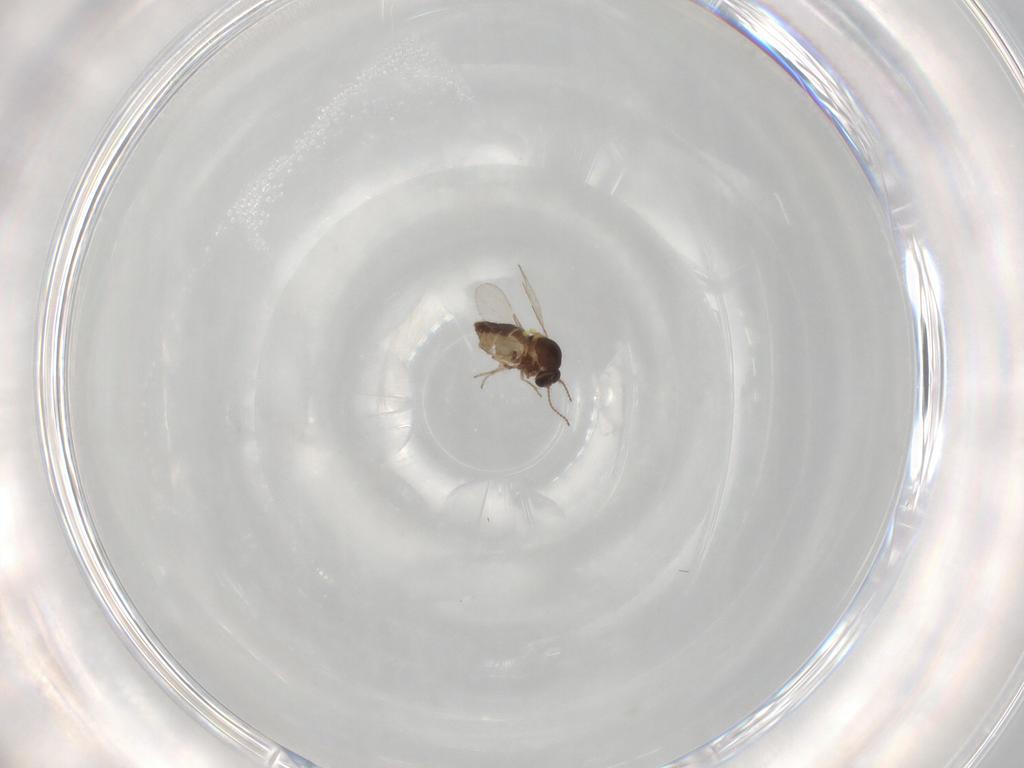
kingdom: Animalia
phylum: Arthropoda
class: Insecta
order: Diptera
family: Ceratopogonidae
